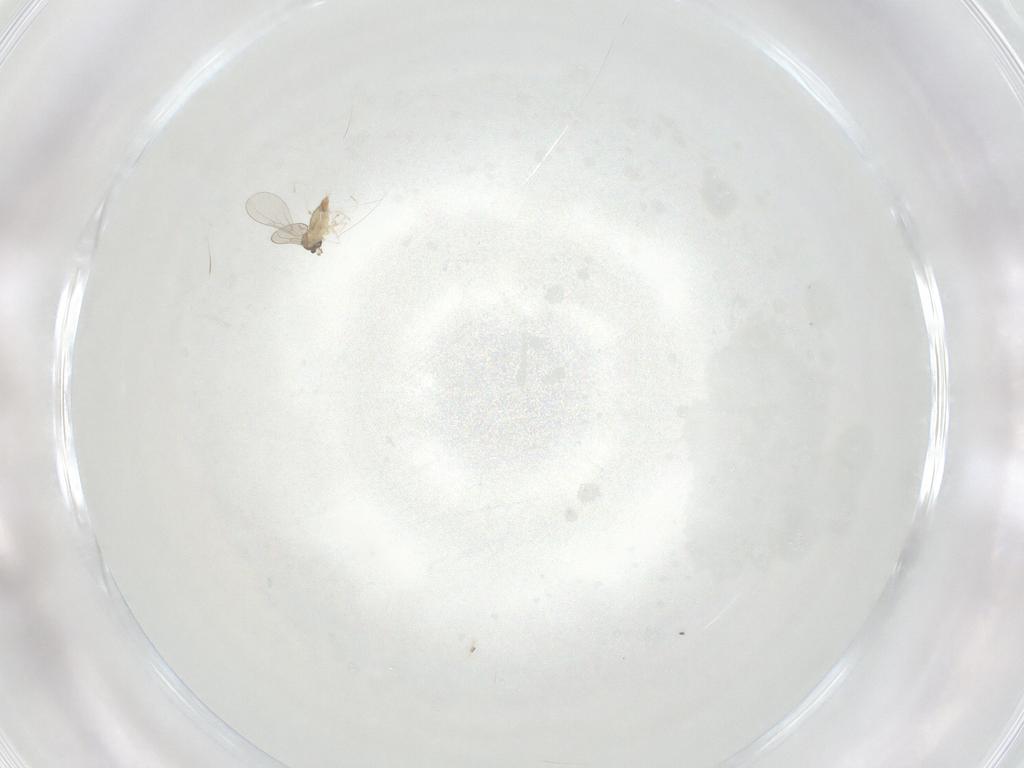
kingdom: Animalia
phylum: Arthropoda
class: Insecta
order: Diptera
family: Cecidomyiidae
